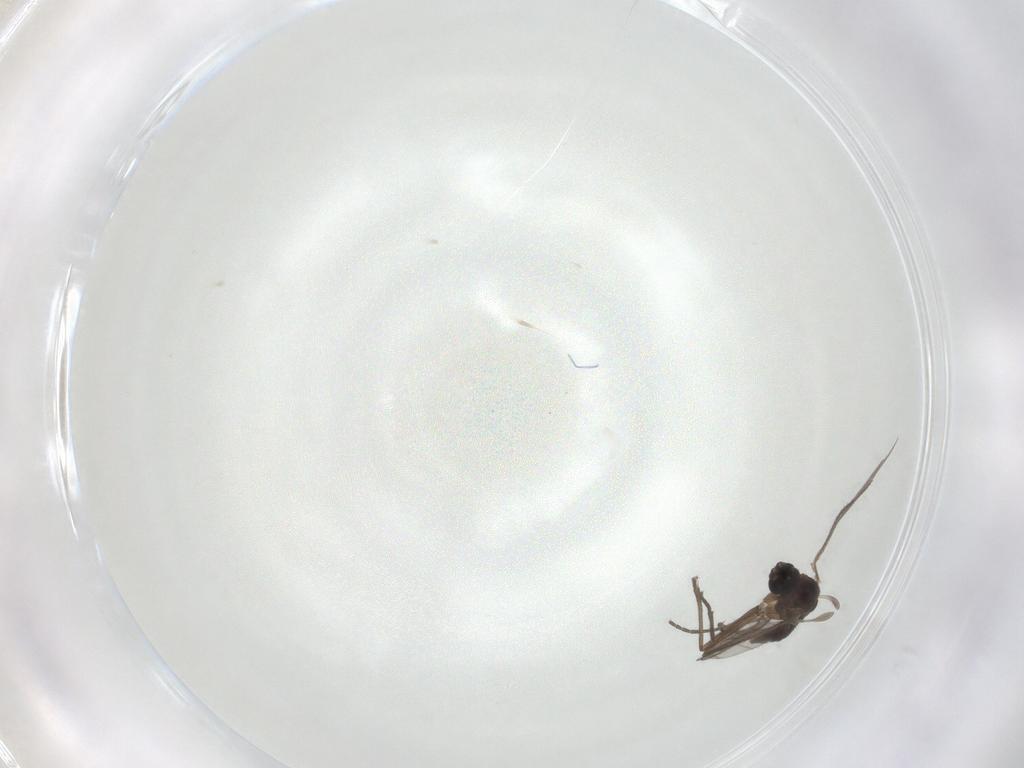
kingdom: Animalia
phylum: Arthropoda
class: Insecta
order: Diptera
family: Sciaridae
